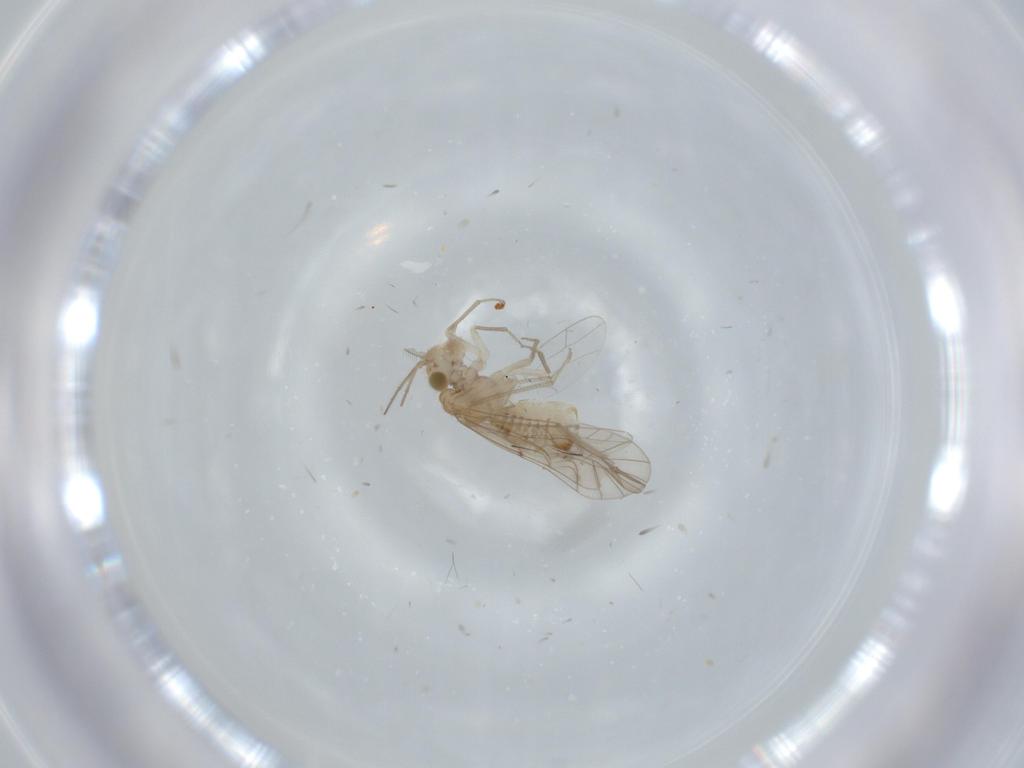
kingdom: Animalia
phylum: Arthropoda
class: Insecta
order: Psocodea
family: Lachesillidae
